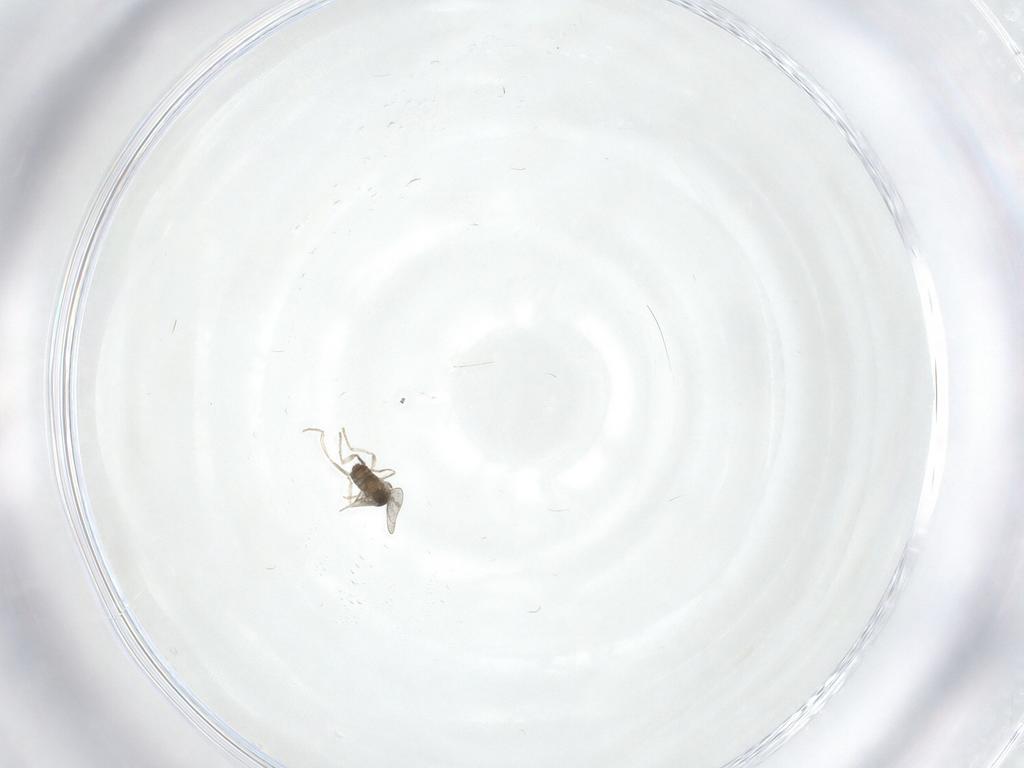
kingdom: Animalia
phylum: Arthropoda
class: Insecta
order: Diptera
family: Cecidomyiidae
